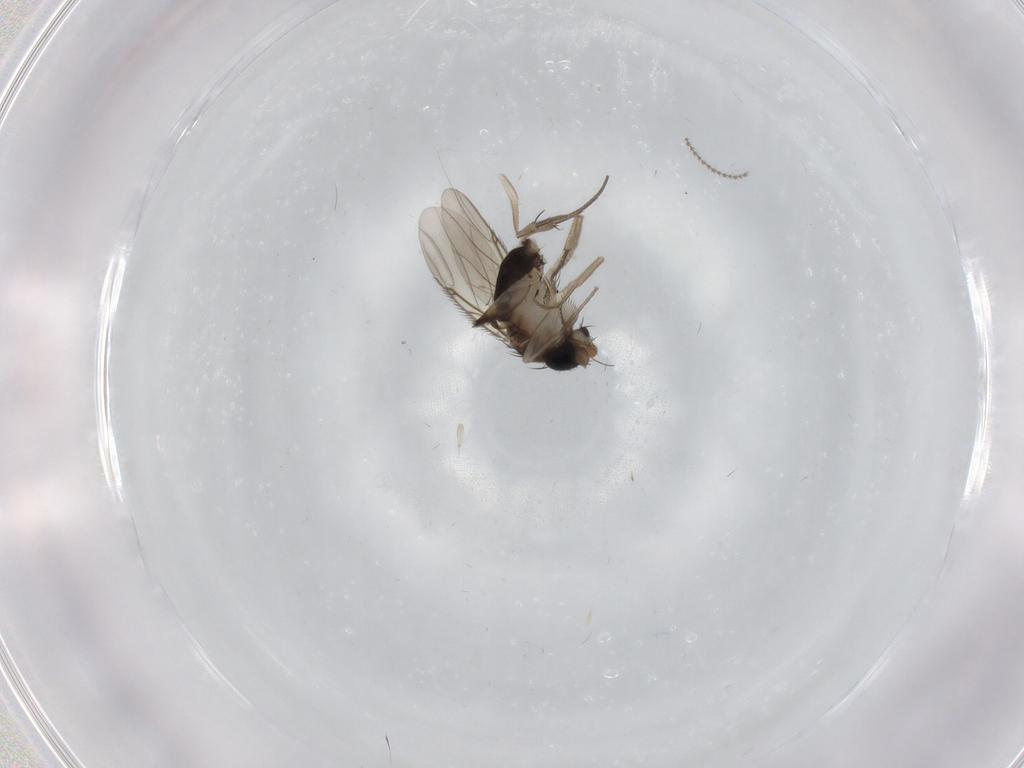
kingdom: Animalia
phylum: Arthropoda
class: Insecta
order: Diptera
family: Phoridae
